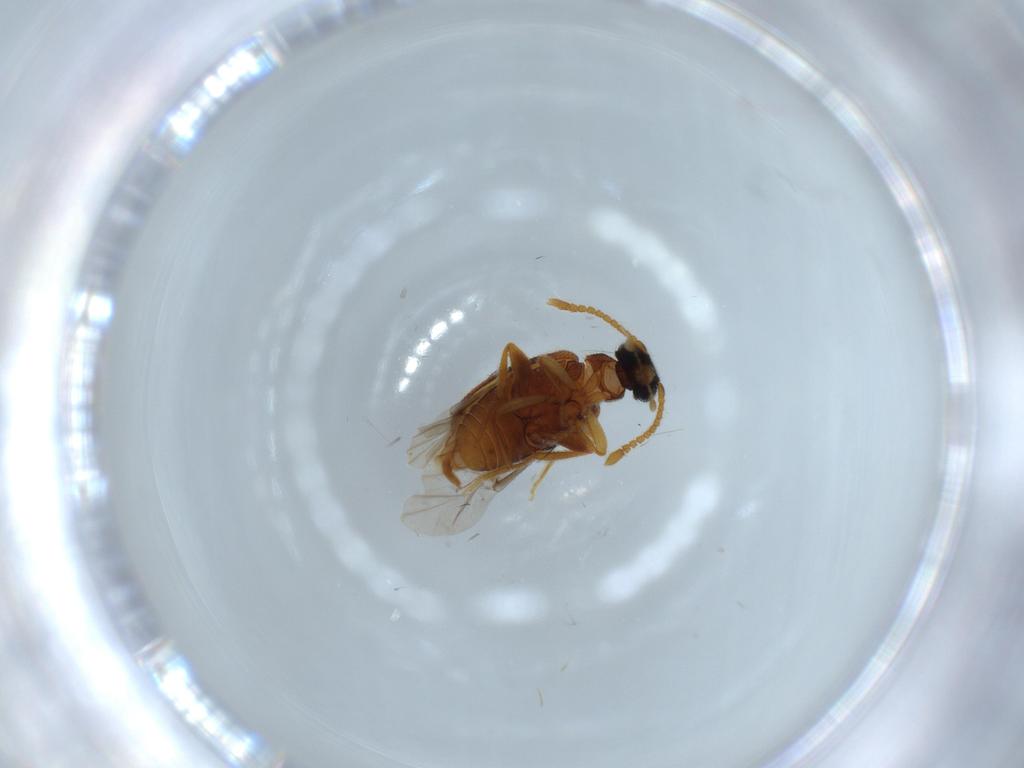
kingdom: Animalia
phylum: Arthropoda
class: Insecta
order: Coleoptera
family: Aderidae
